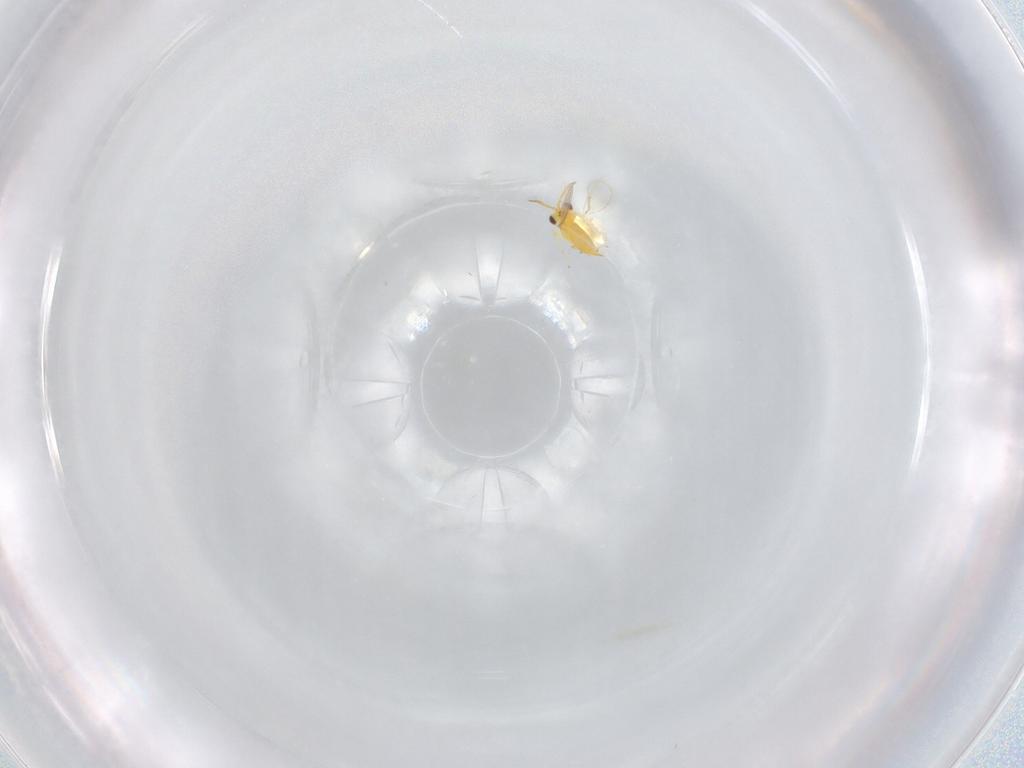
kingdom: Animalia
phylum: Arthropoda
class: Insecta
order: Hymenoptera
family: Aphelinidae
